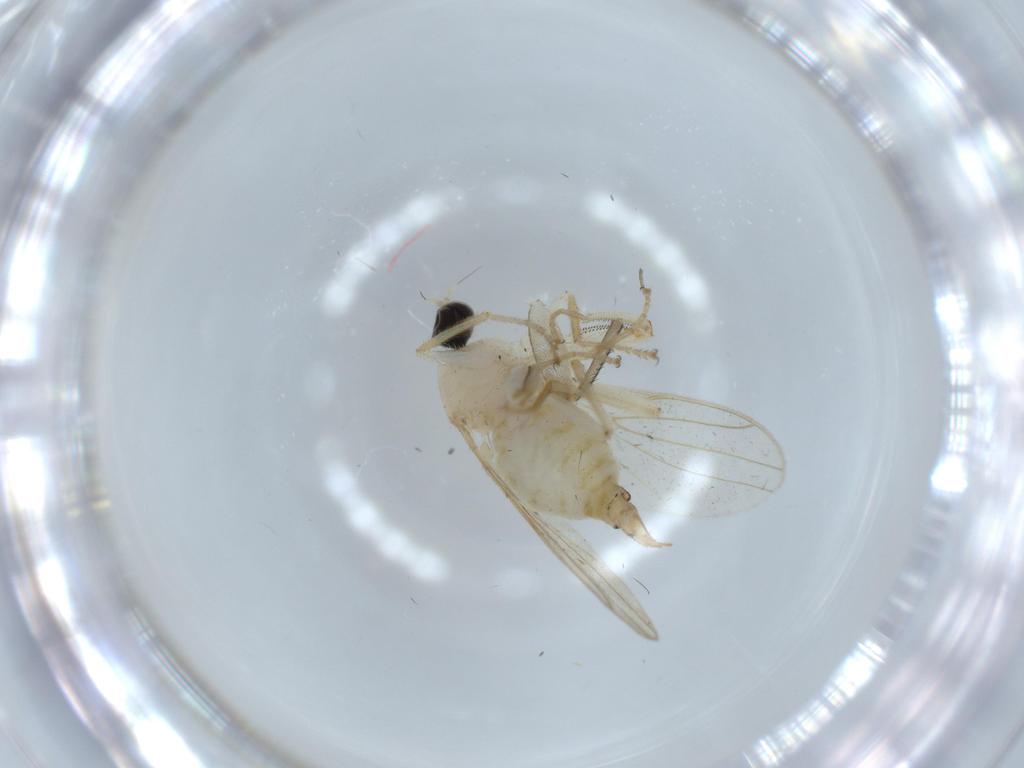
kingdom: Animalia
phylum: Arthropoda
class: Insecta
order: Diptera
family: Hybotidae
